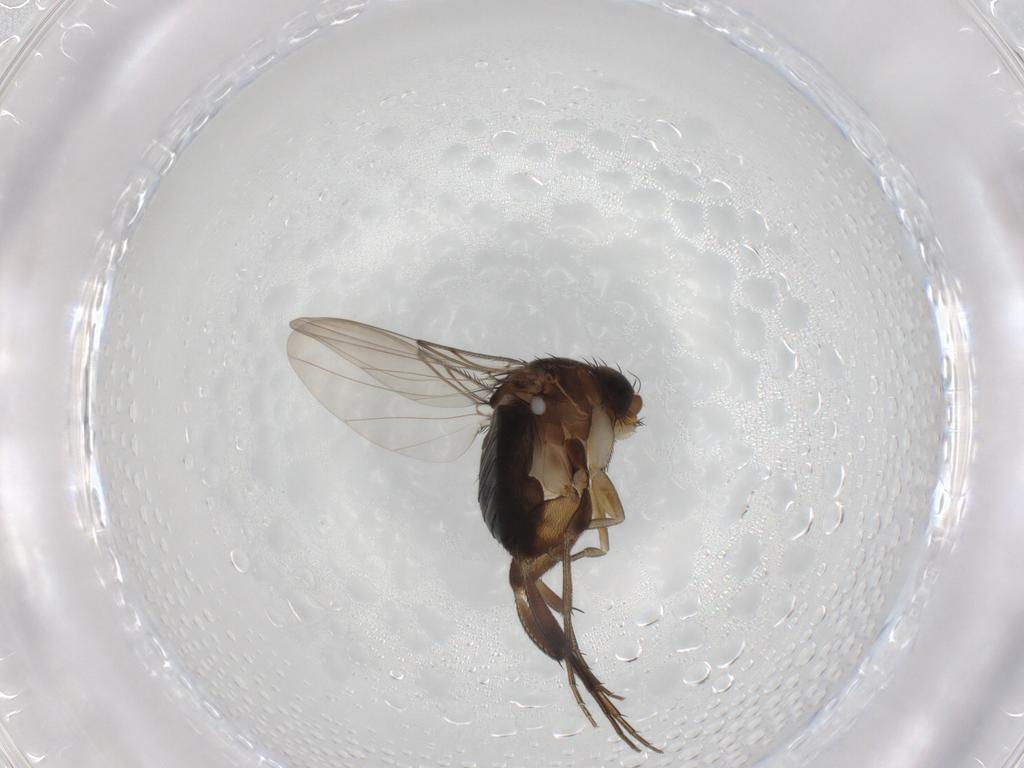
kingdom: Animalia
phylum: Arthropoda
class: Insecta
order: Diptera
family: Phoridae
